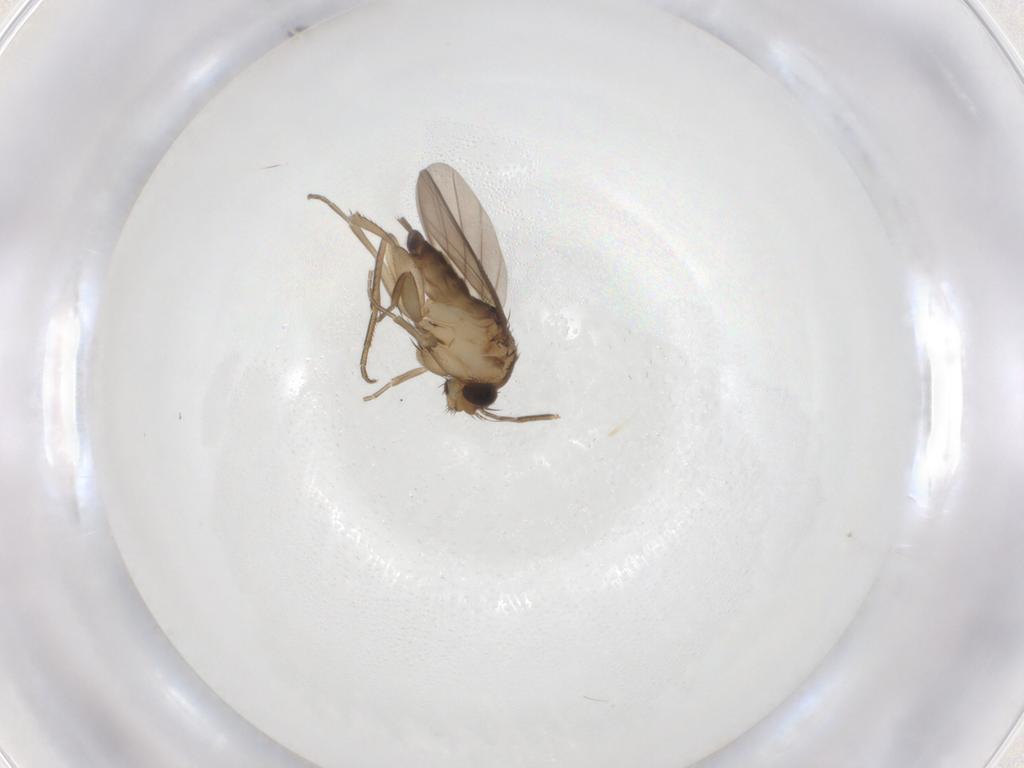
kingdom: Animalia
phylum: Arthropoda
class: Insecta
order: Diptera
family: Phoridae
